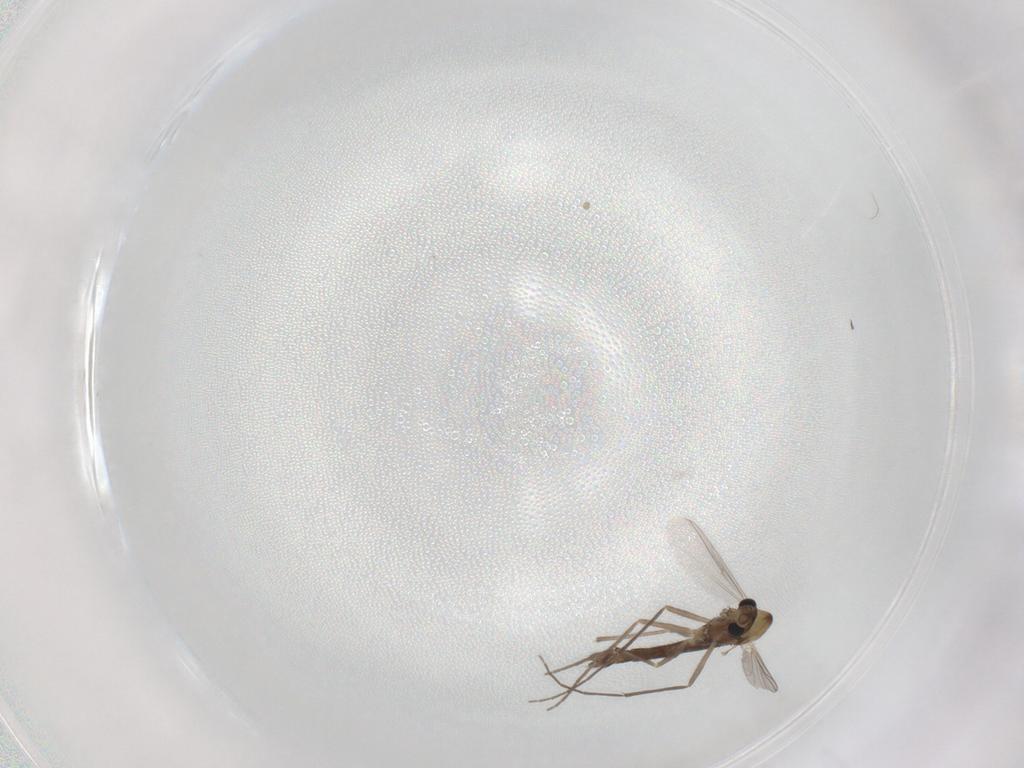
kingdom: Animalia
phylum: Arthropoda
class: Insecta
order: Diptera
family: Chironomidae
